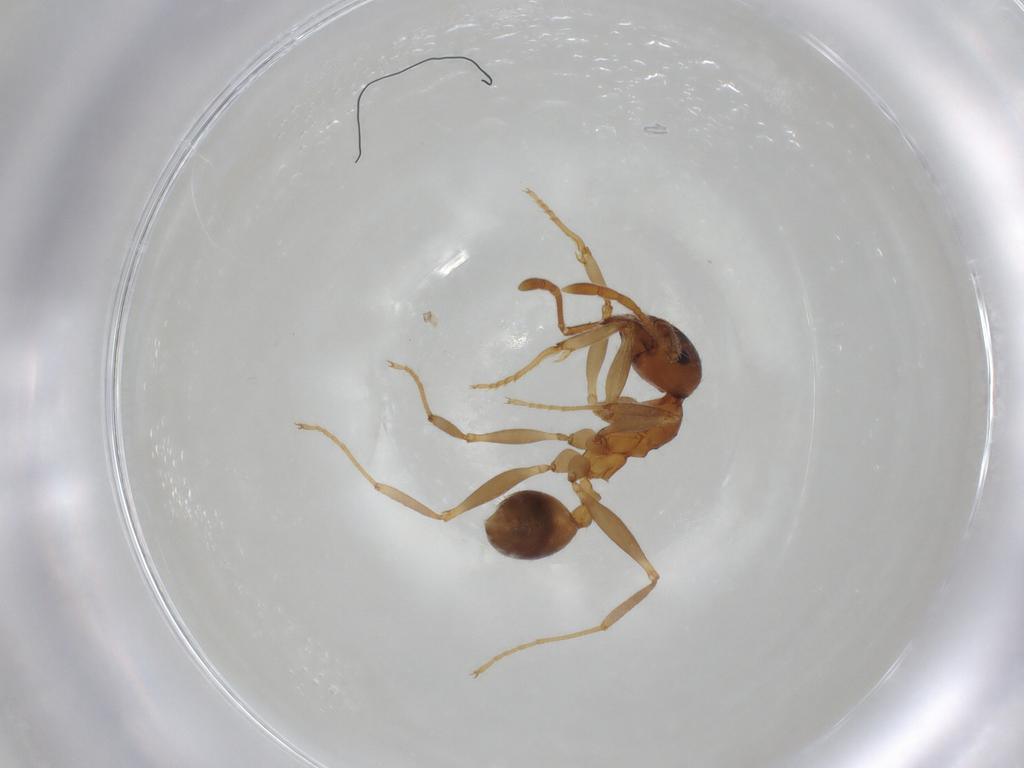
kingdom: Animalia
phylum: Arthropoda
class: Insecta
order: Hymenoptera
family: Formicidae
